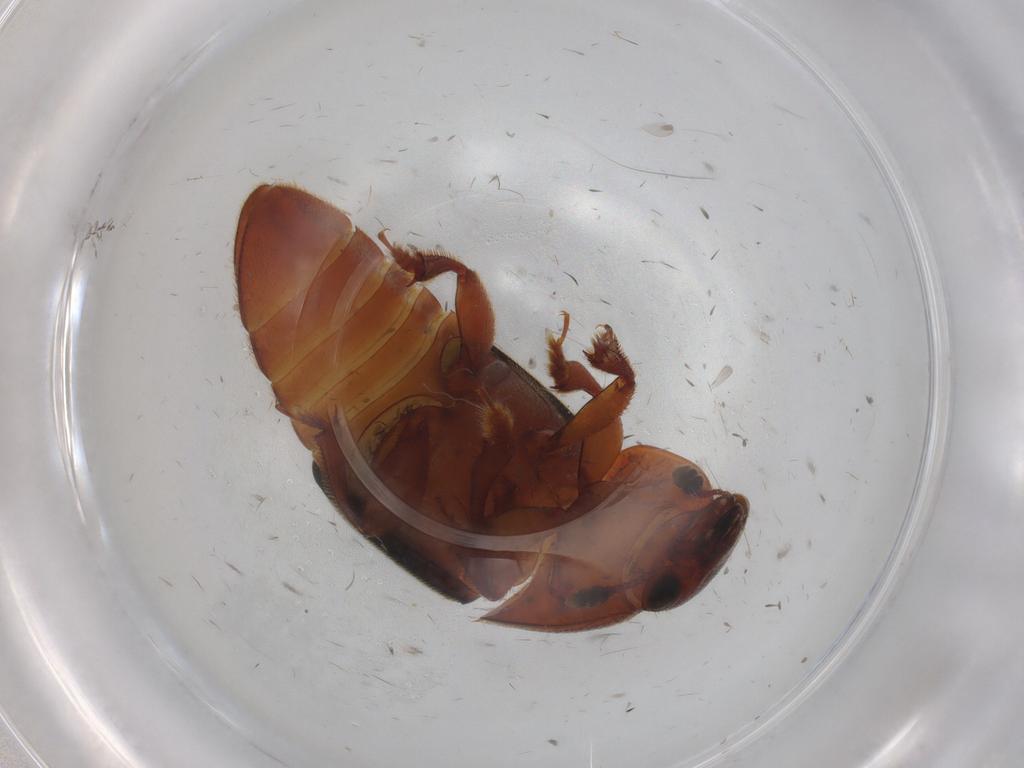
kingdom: Animalia
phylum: Arthropoda
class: Insecta
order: Coleoptera
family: Nitidulidae
